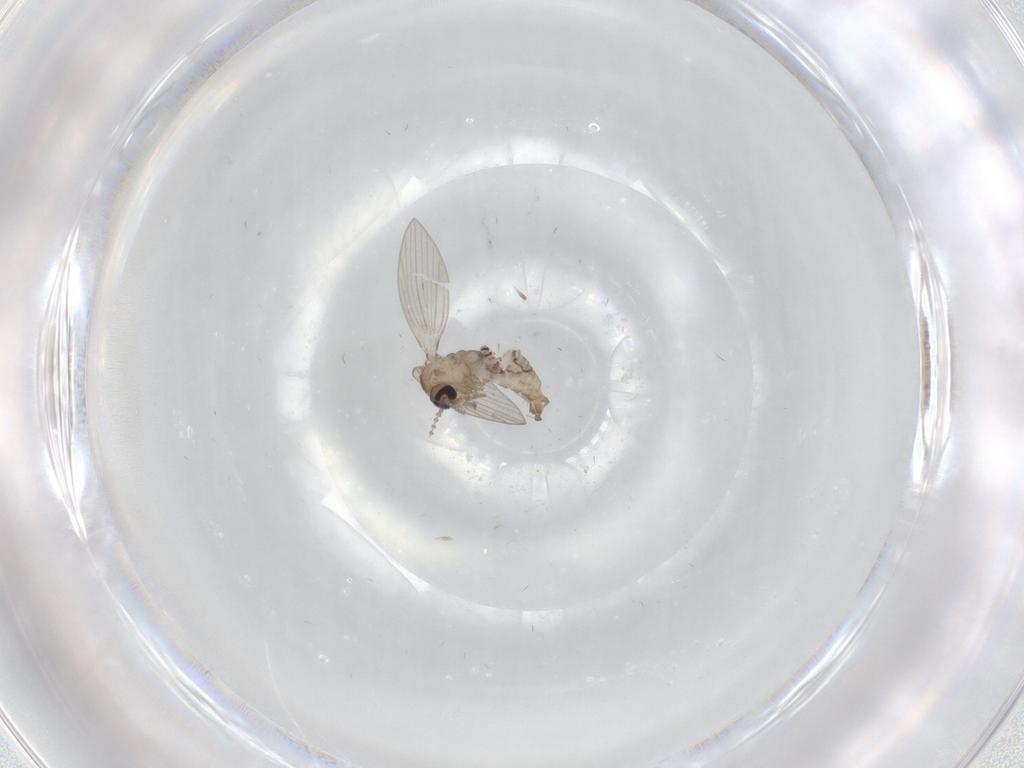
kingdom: Animalia
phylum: Arthropoda
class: Insecta
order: Diptera
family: Psychodidae
